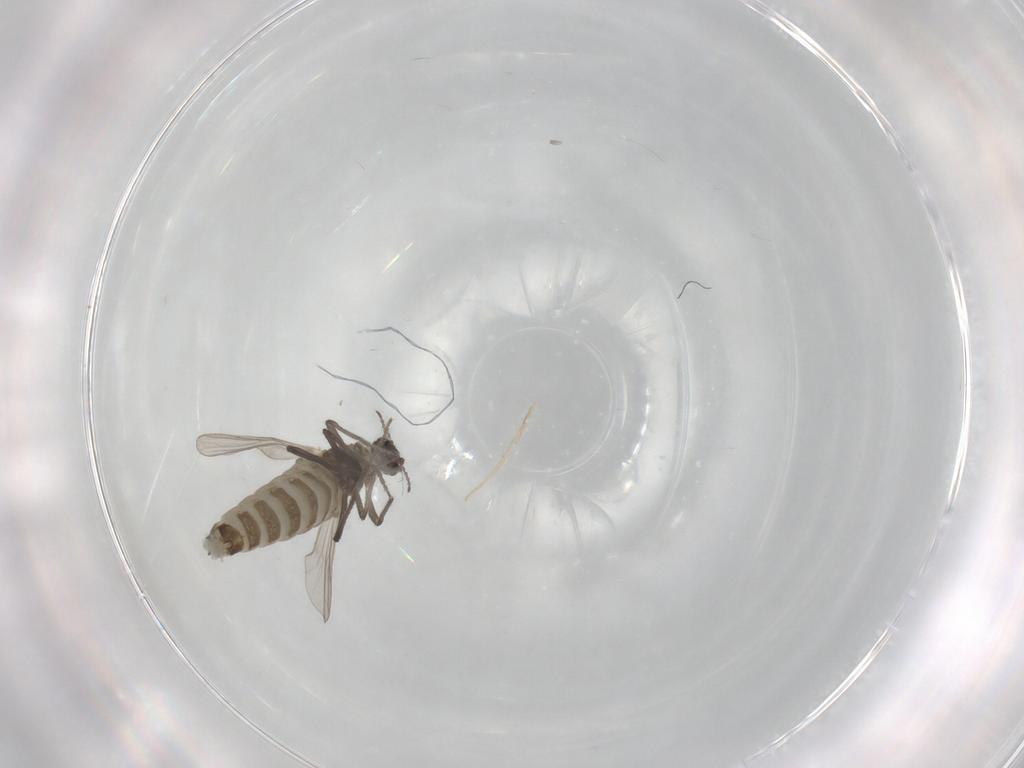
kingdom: Animalia
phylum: Arthropoda
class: Insecta
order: Diptera
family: Chironomidae
